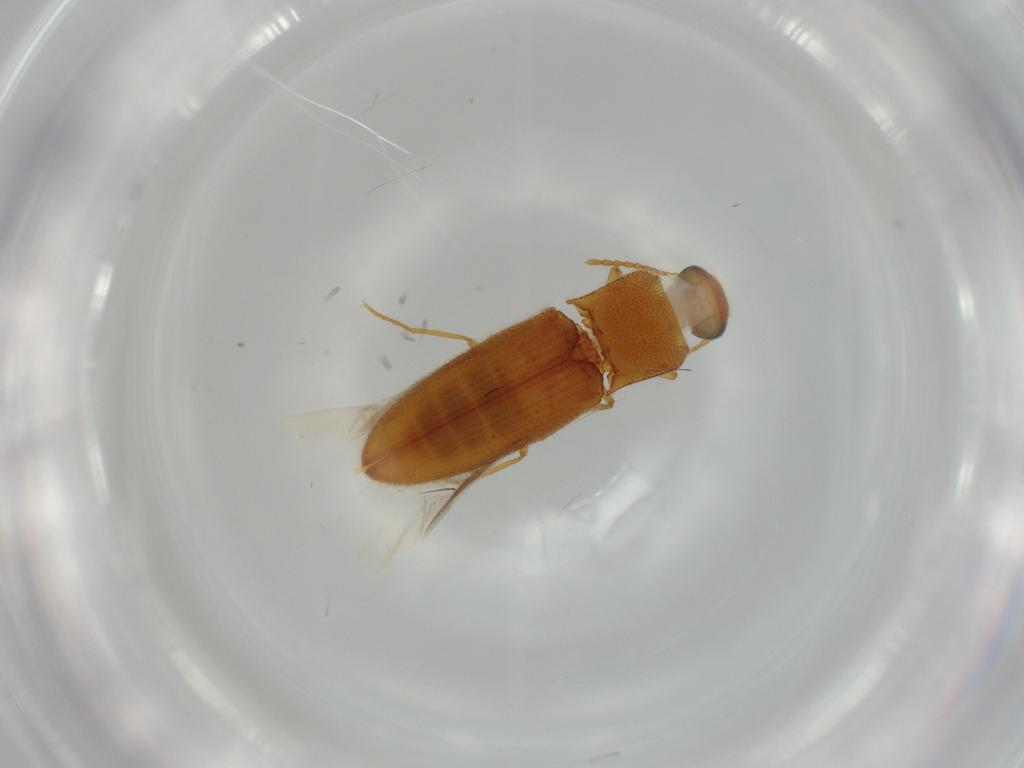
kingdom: Animalia
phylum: Arthropoda
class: Insecta
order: Coleoptera
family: Elateridae
